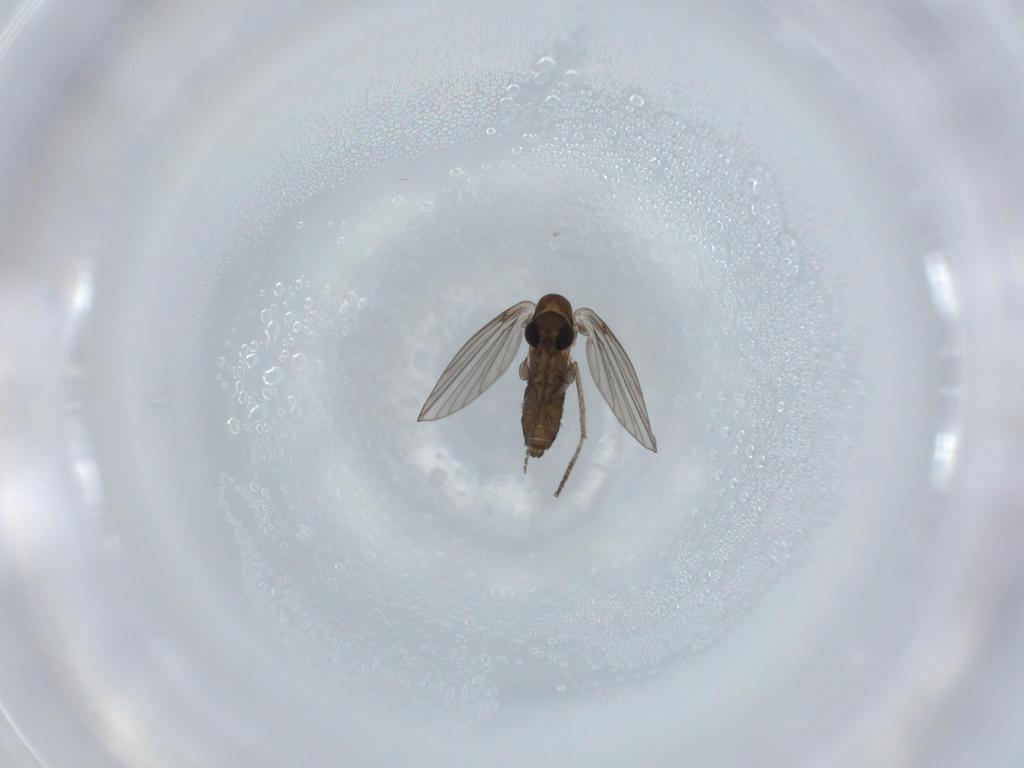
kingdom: Animalia
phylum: Arthropoda
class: Insecta
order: Diptera
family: Psychodidae
